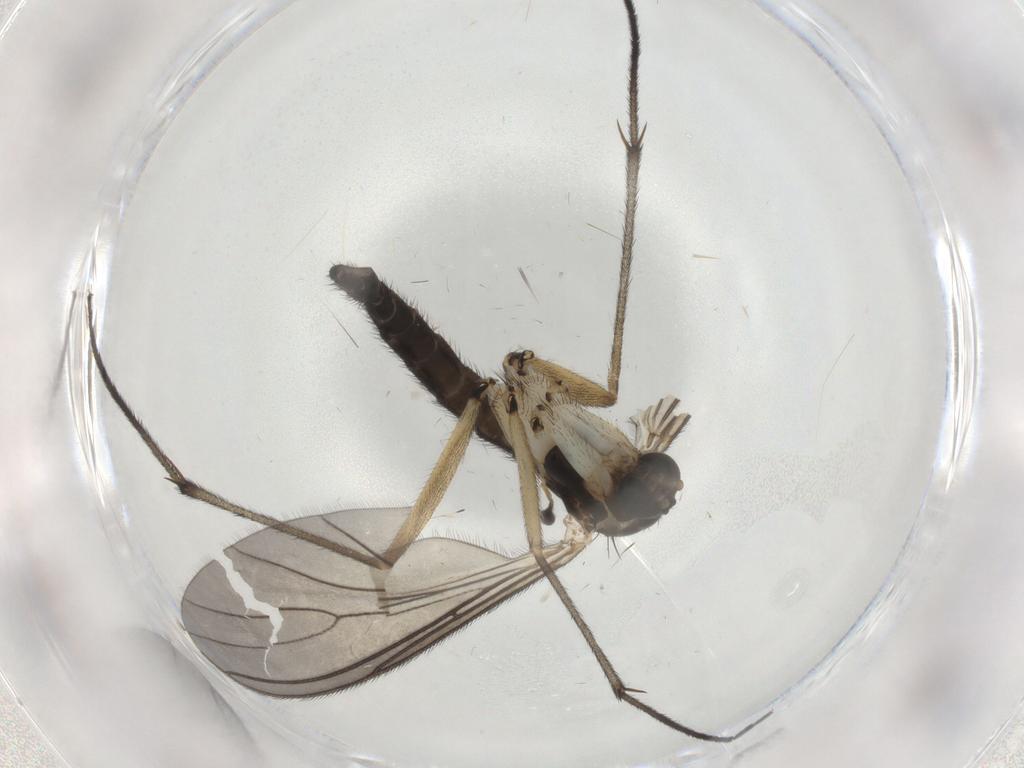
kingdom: Animalia
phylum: Arthropoda
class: Insecta
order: Diptera
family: Sciaridae
